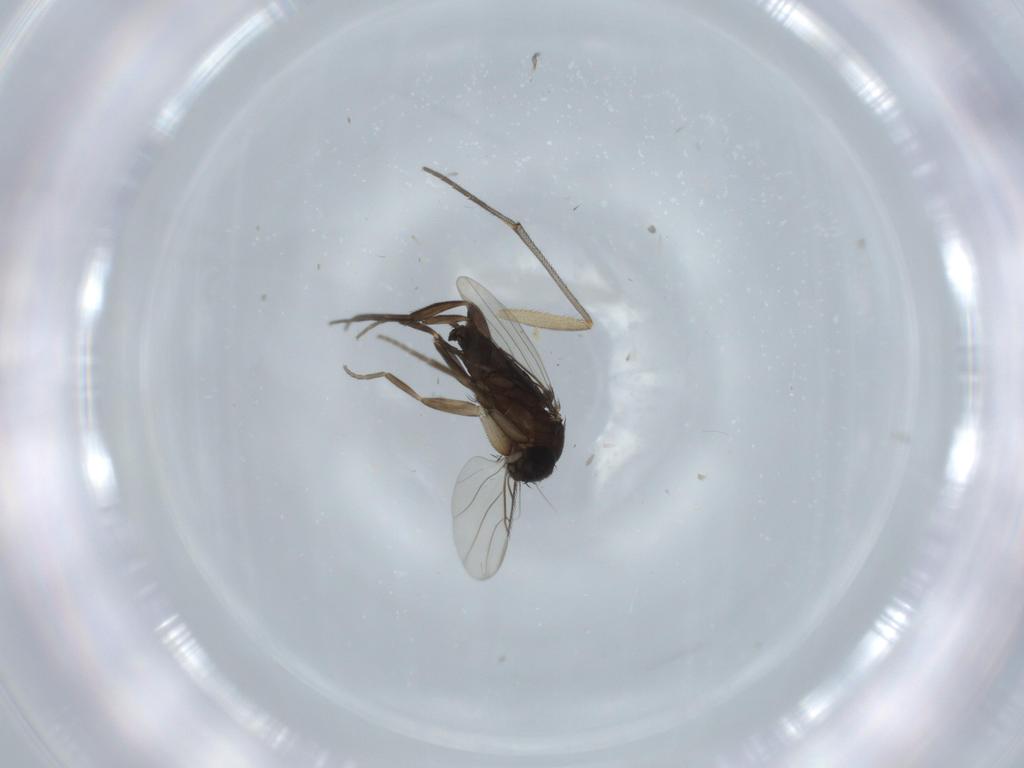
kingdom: Animalia
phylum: Arthropoda
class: Insecta
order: Diptera
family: Phoridae
